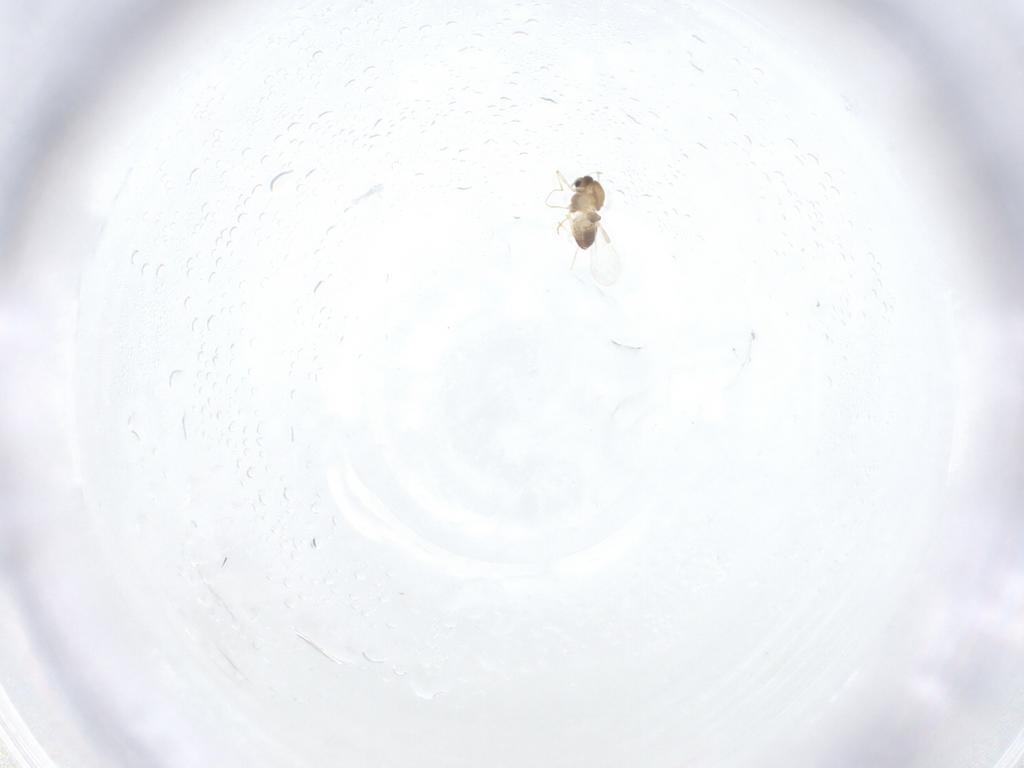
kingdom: Animalia
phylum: Arthropoda
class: Insecta
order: Diptera
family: Chironomidae
